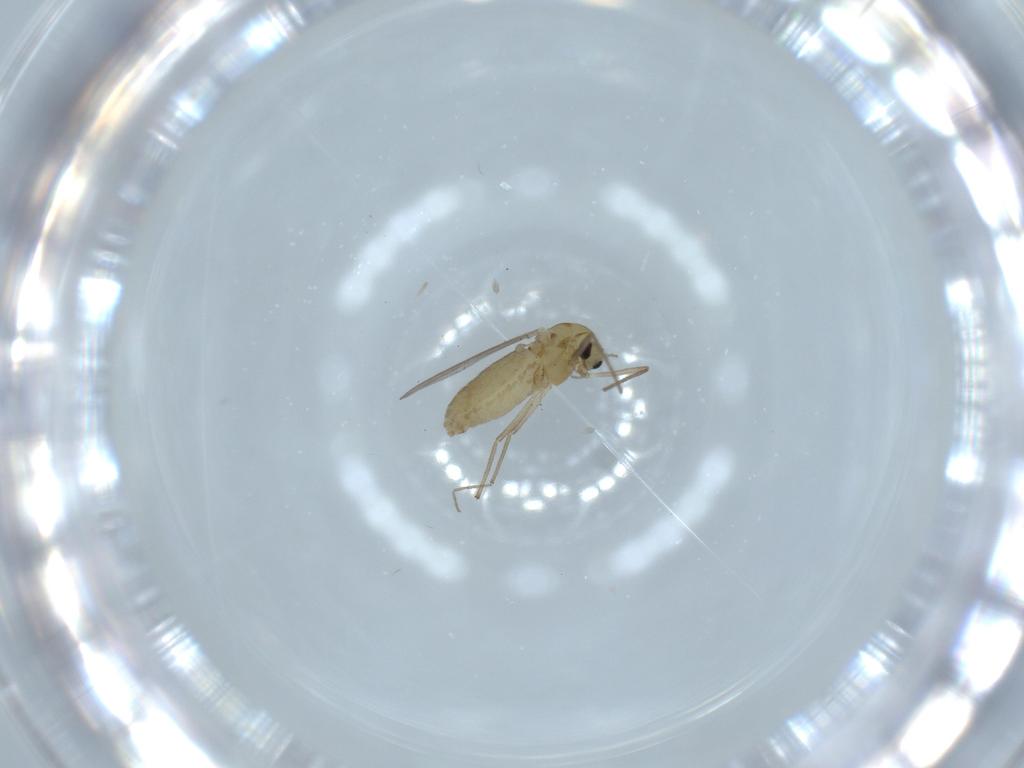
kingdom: Animalia
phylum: Arthropoda
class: Insecta
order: Diptera
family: Chironomidae
